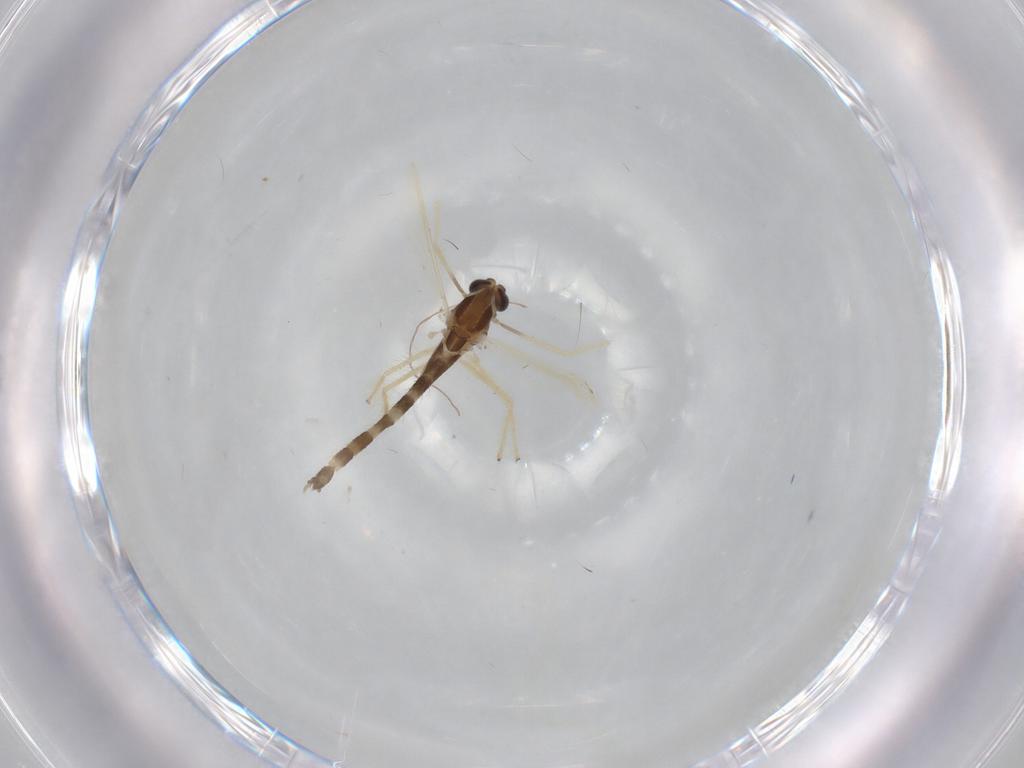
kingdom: Animalia
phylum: Arthropoda
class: Insecta
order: Diptera
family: Chironomidae
